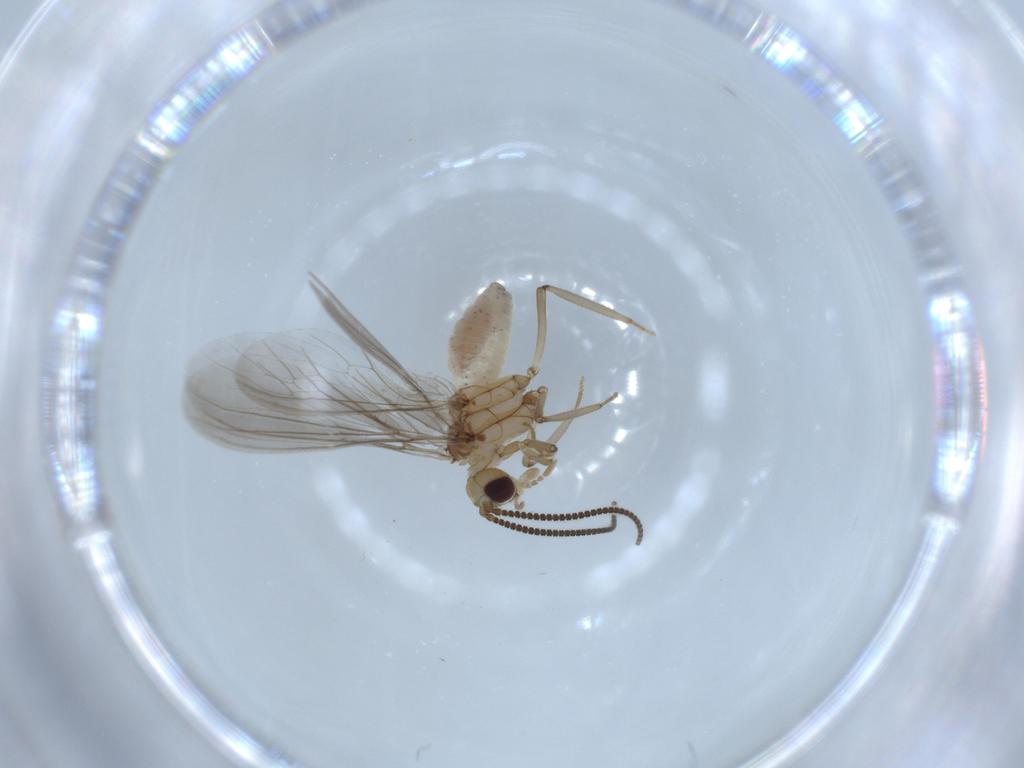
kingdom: Animalia
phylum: Arthropoda
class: Insecta
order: Neuroptera
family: Coniopterygidae
